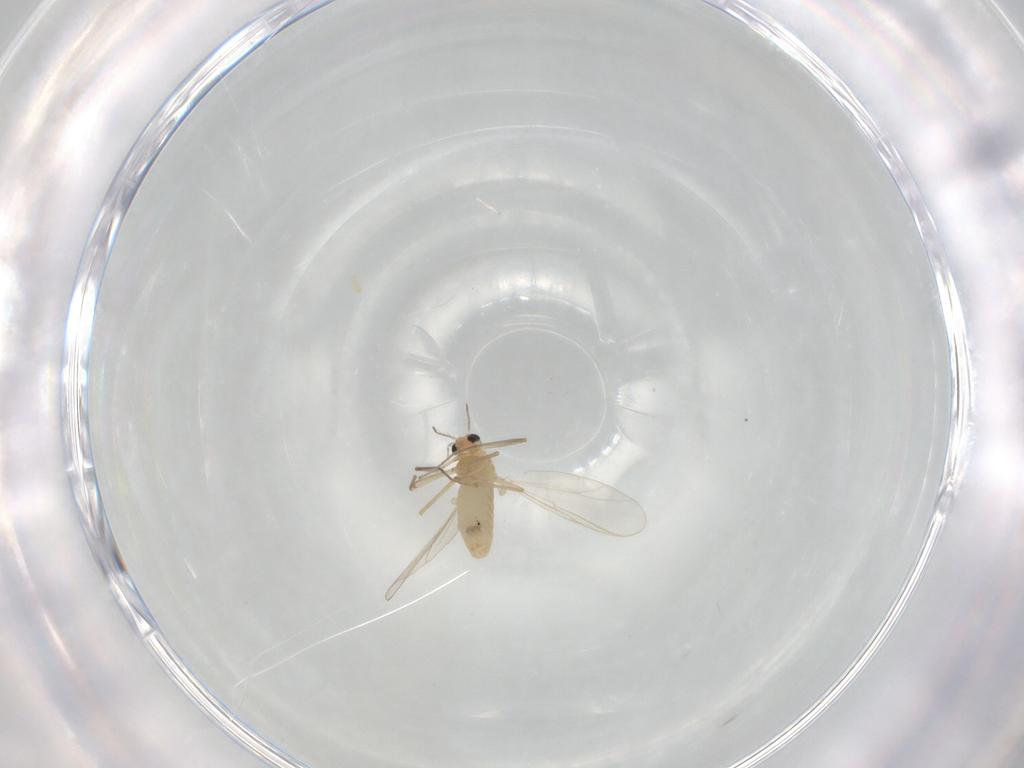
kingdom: Animalia
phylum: Arthropoda
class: Insecta
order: Diptera
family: Chironomidae
